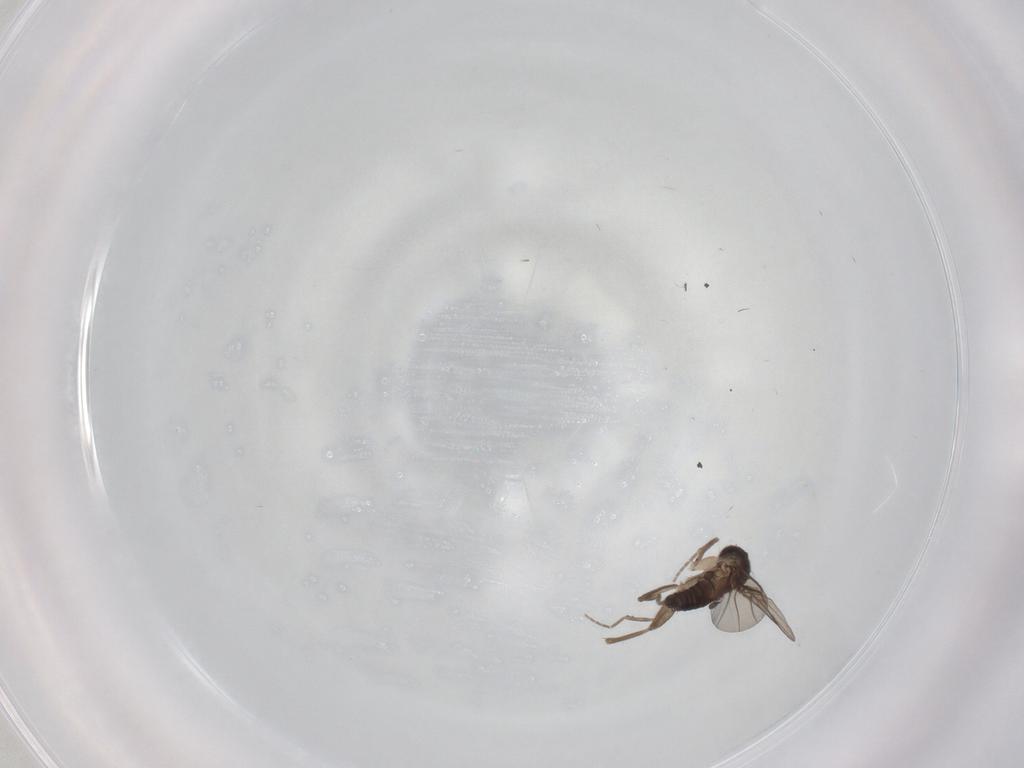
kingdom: Animalia
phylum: Arthropoda
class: Insecta
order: Diptera
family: Phoridae
